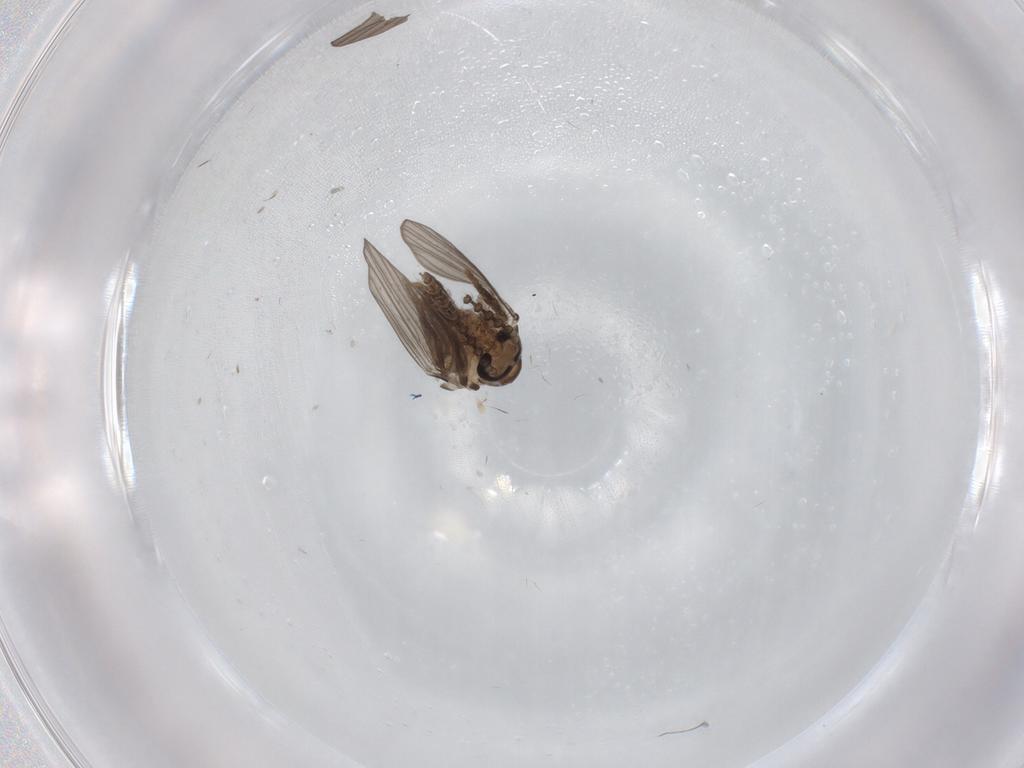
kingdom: Animalia
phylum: Arthropoda
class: Insecta
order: Diptera
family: Psychodidae
